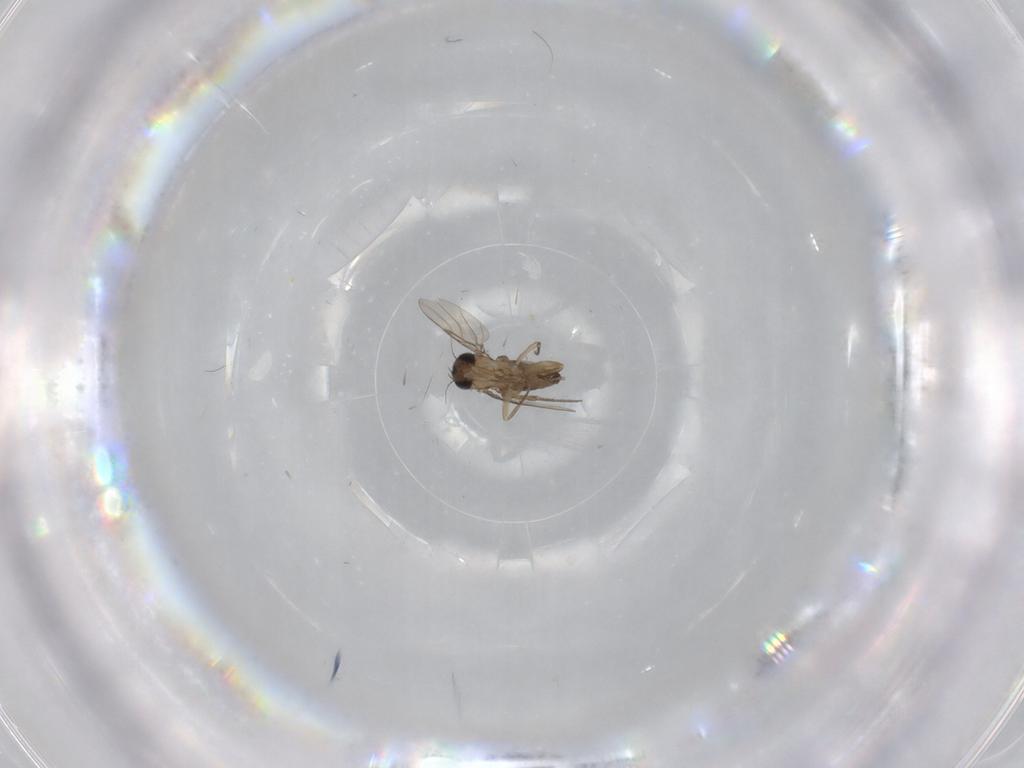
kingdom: Animalia
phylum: Arthropoda
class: Insecta
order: Diptera
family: Phoridae
